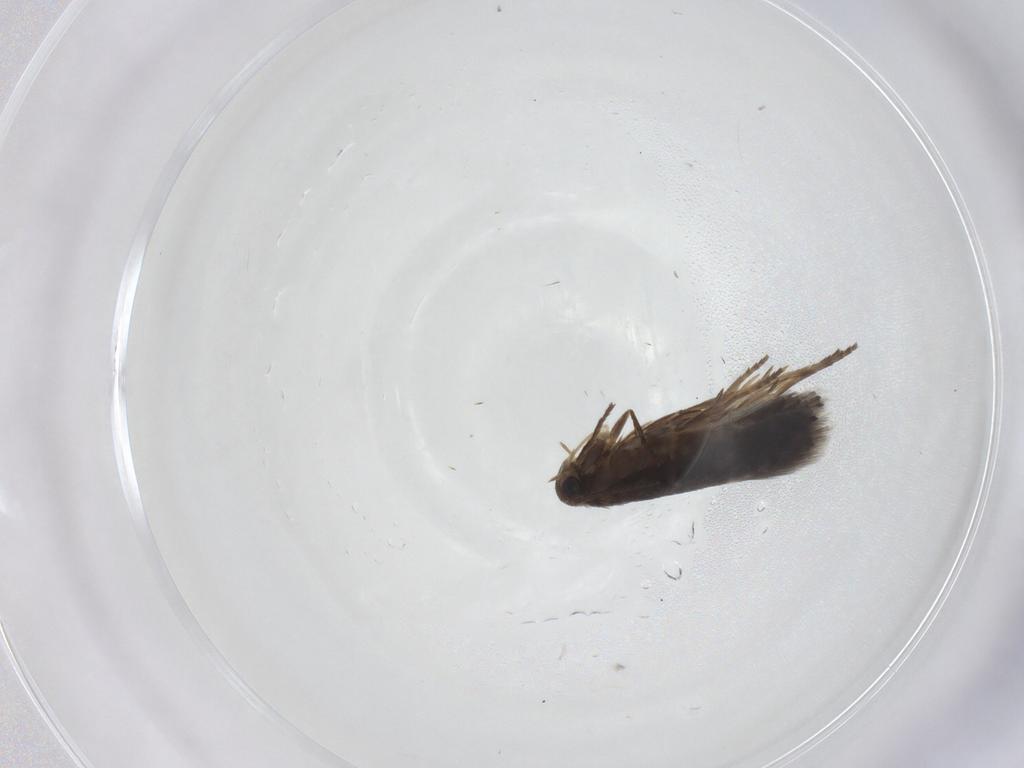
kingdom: Animalia
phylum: Arthropoda
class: Insecta
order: Lepidoptera
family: Heliozelidae
